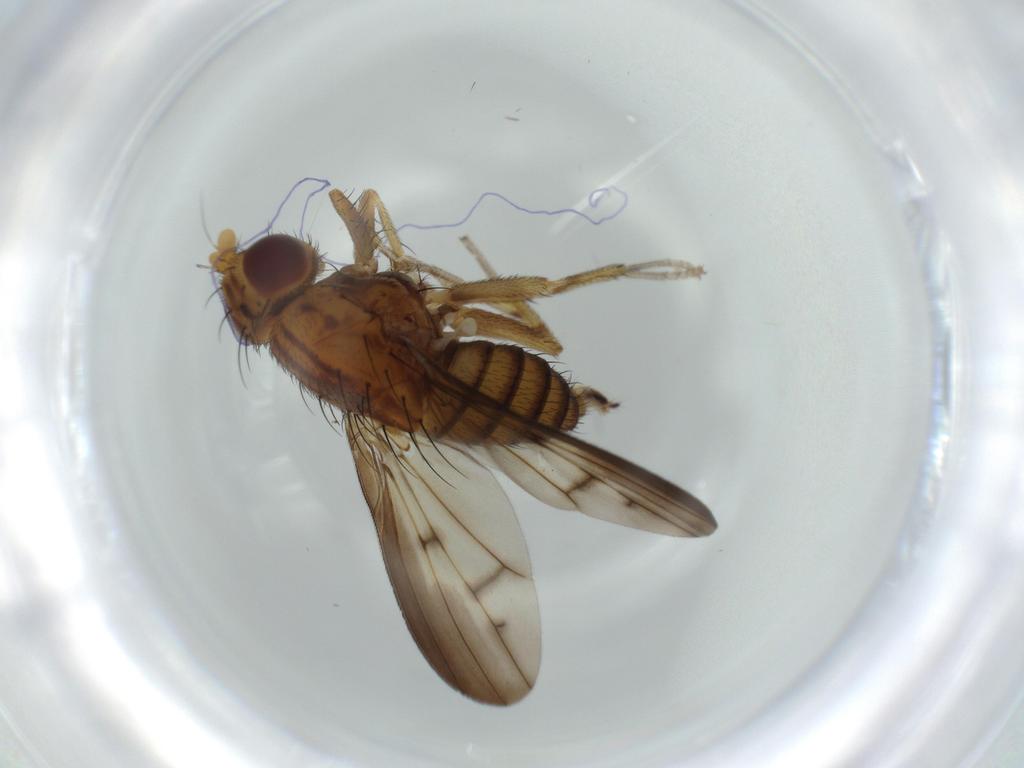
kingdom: Animalia
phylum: Arthropoda
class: Insecta
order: Diptera
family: Lauxaniidae
